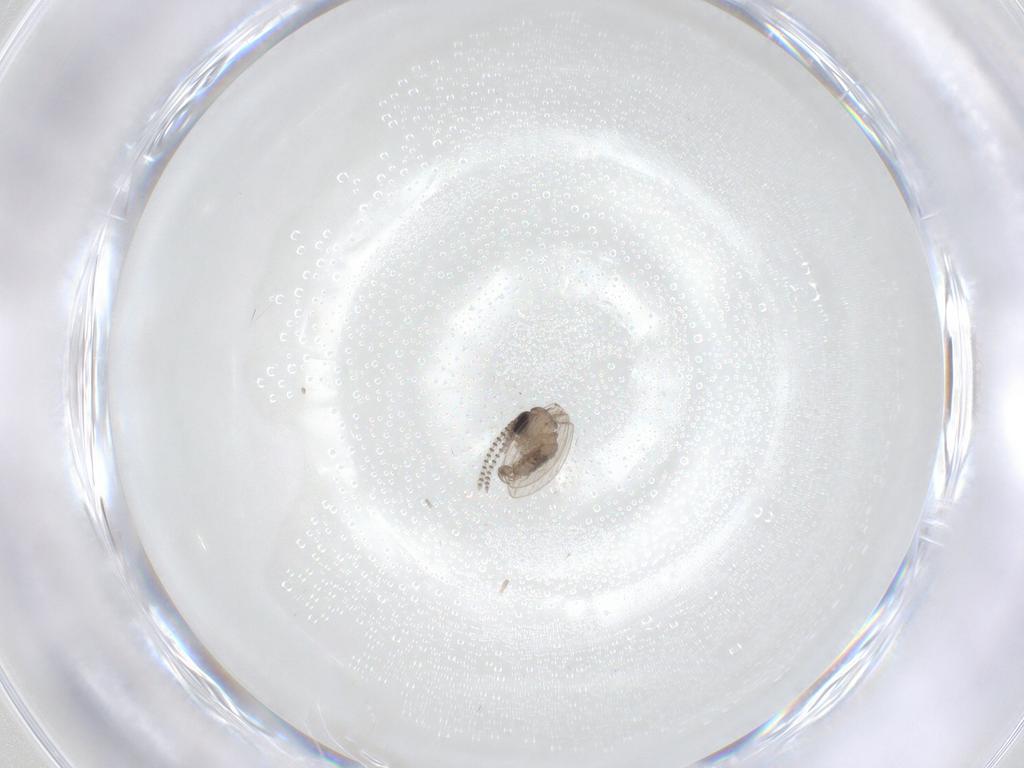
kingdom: Animalia
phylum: Arthropoda
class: Insecta
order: Diptera
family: Psychodidae
